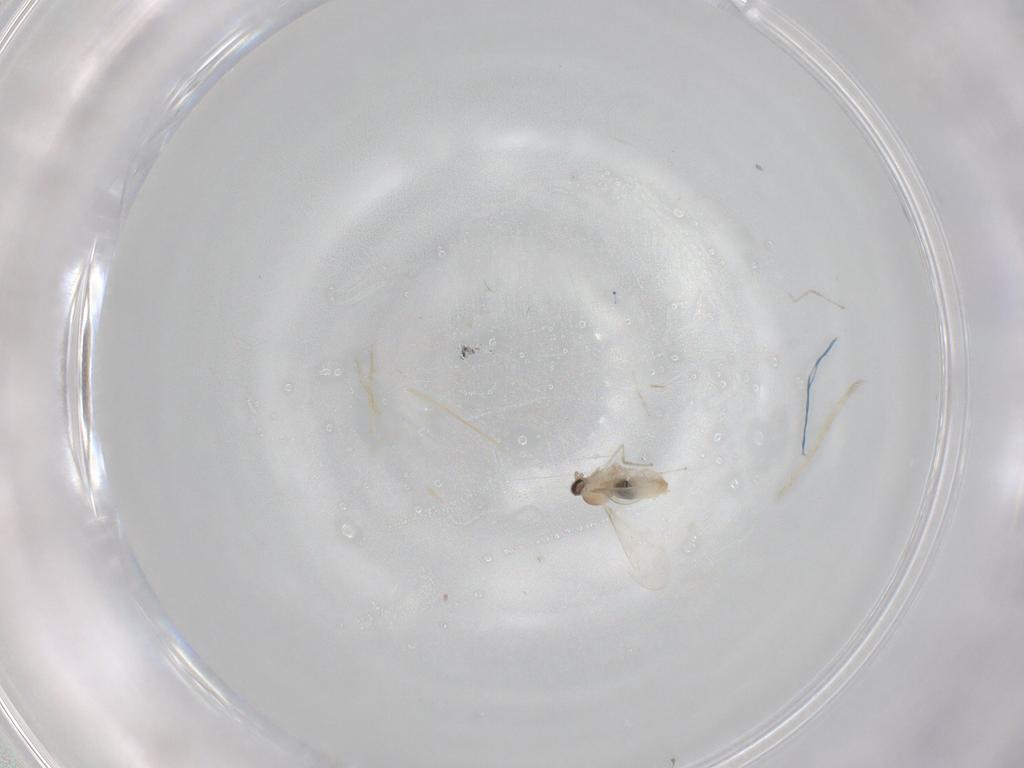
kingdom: Animalia
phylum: Arthropoda
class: Insecta
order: Diptera
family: Cecidomyiidae
